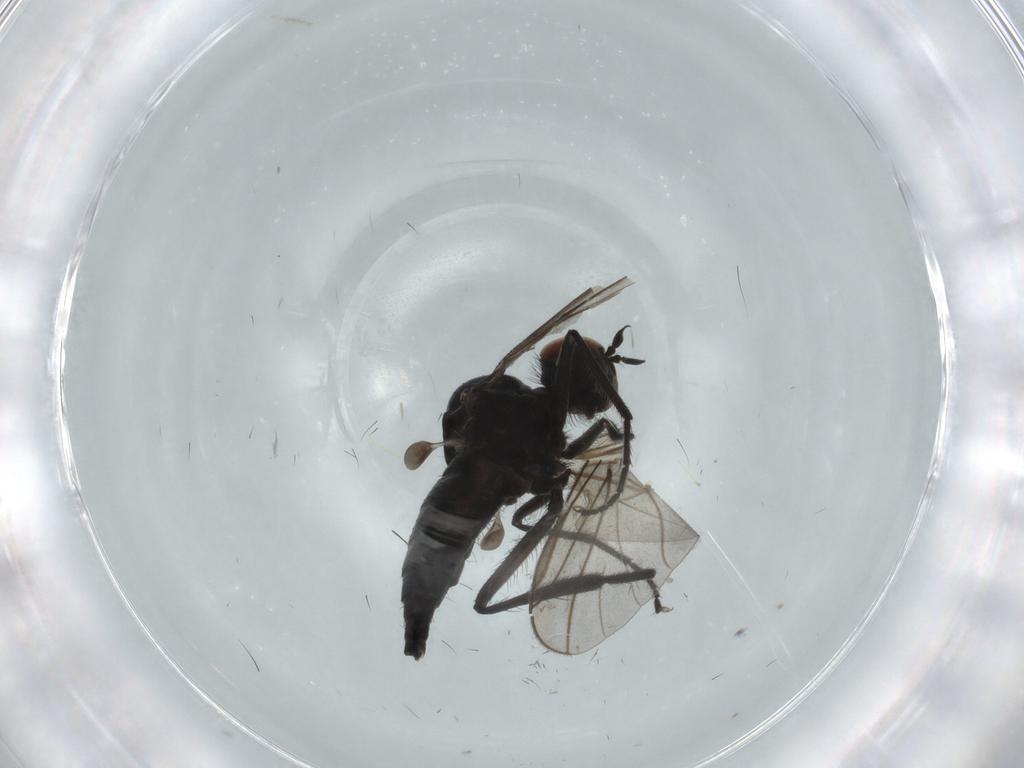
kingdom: Animalia
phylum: Arthropoda
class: Insecta
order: Diptera
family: Hybotidae
